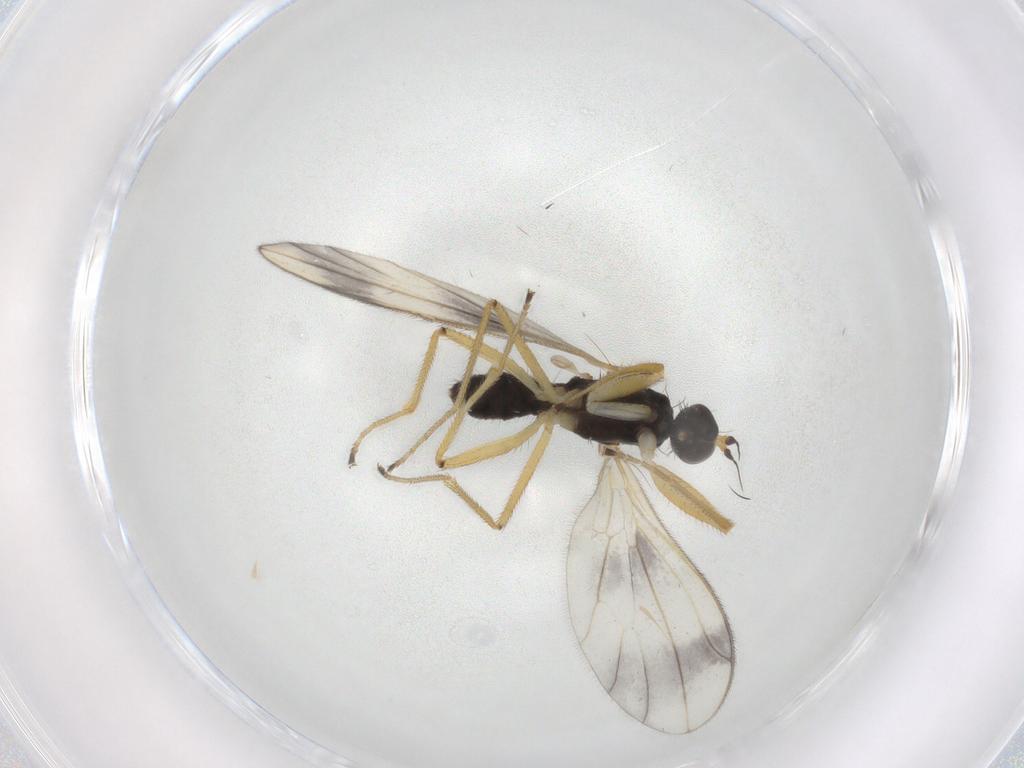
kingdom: Animalia
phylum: Arthropoda
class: Insecta
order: Diptera
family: Empididae
